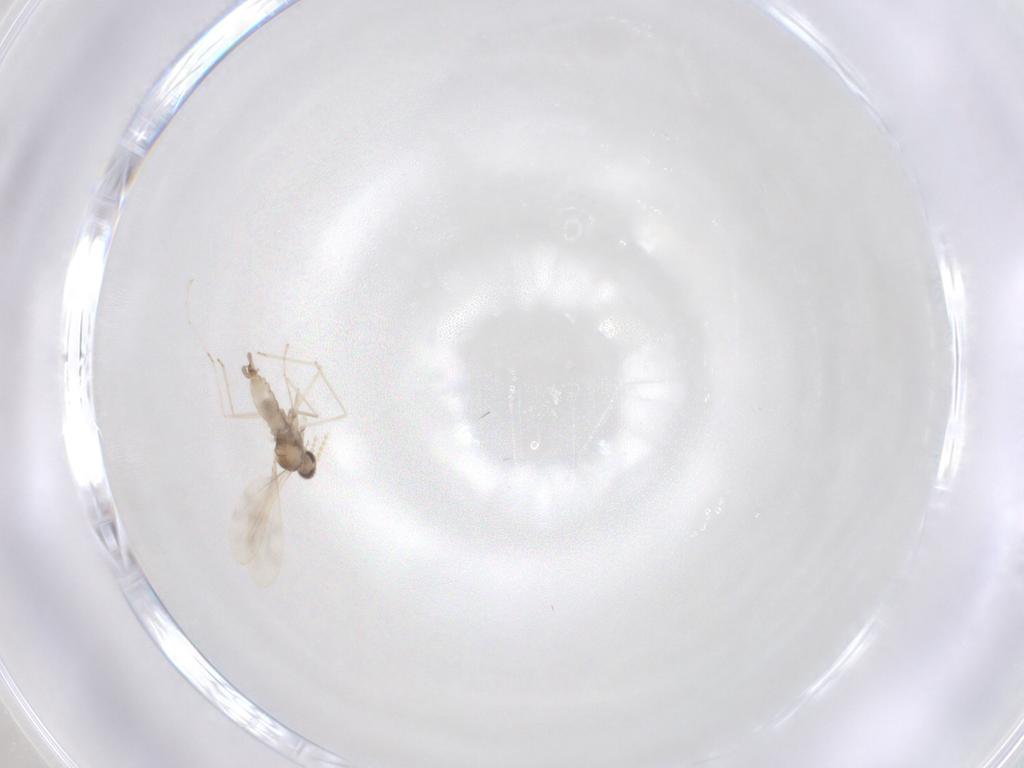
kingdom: Animalia
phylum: Arthropoda
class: Insecta
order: Diptera
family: Cecidomyiidae
